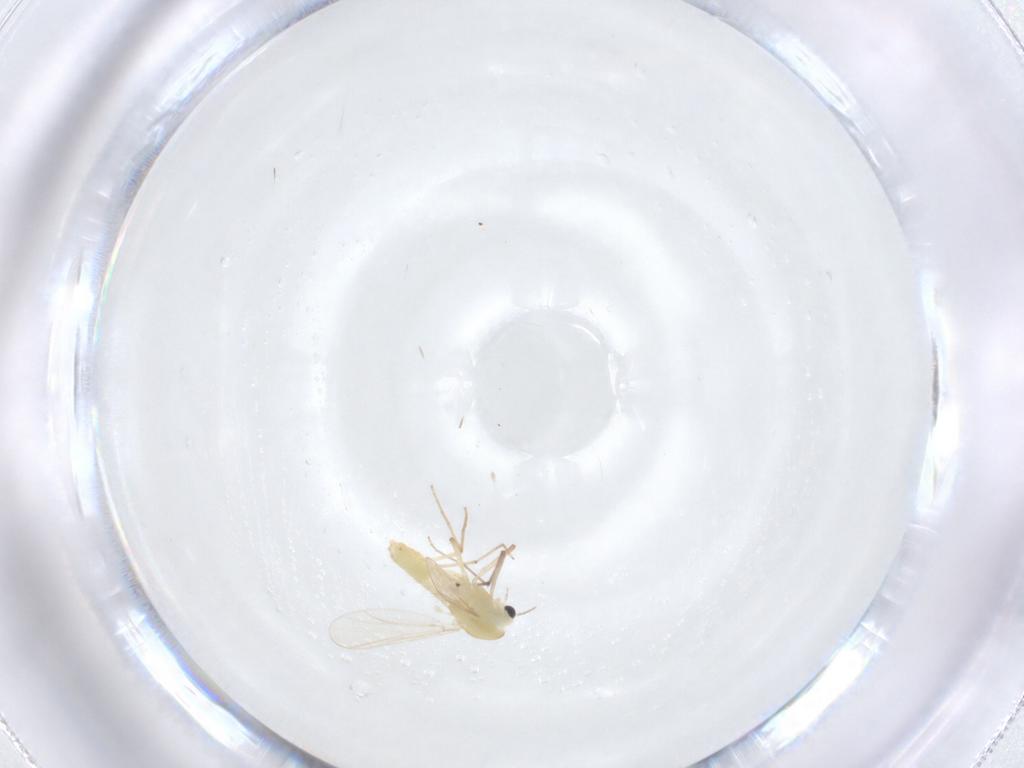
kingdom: Animalia
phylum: Arthropoda
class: Insecta
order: Diptera
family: Chironomidae
